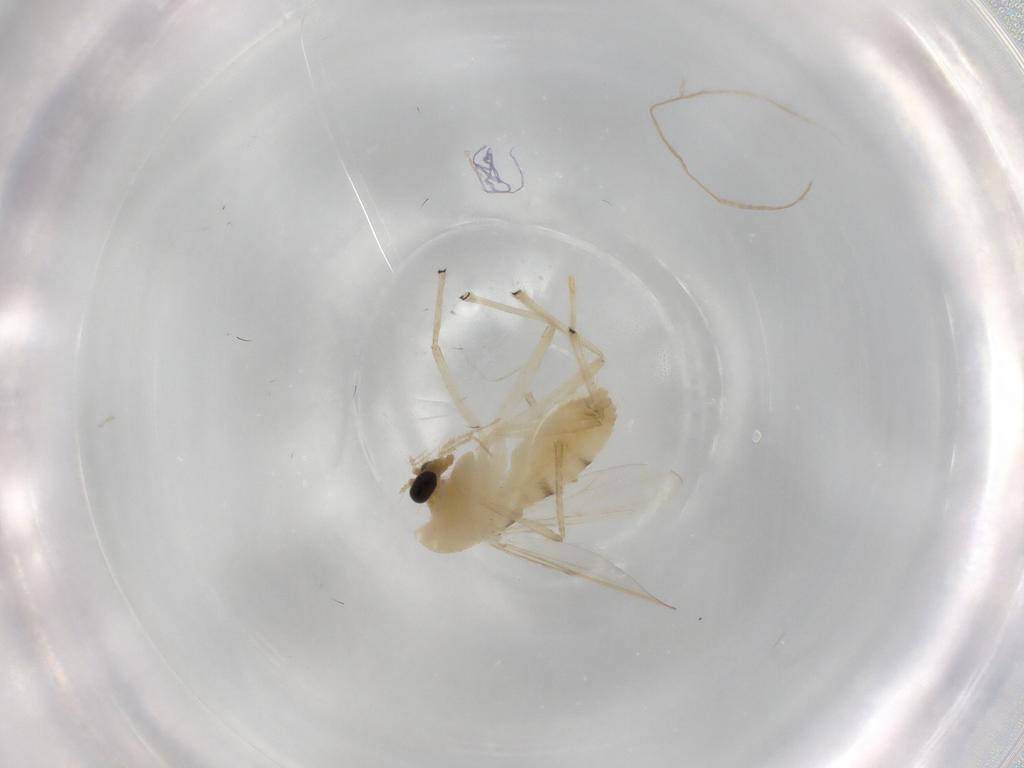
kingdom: Animalia
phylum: Arthropoda
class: Insecta
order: Diptera
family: Chironomidae
